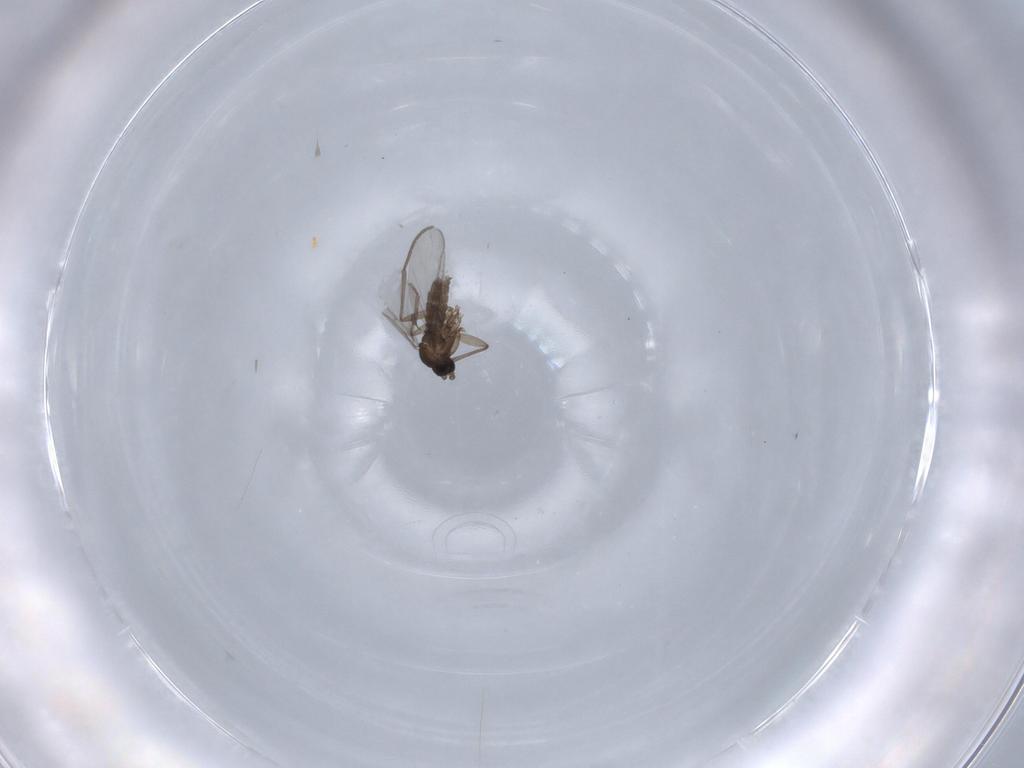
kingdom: Animalia
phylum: Arthropoda
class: Insecta
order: Diptera
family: Sciaridae
